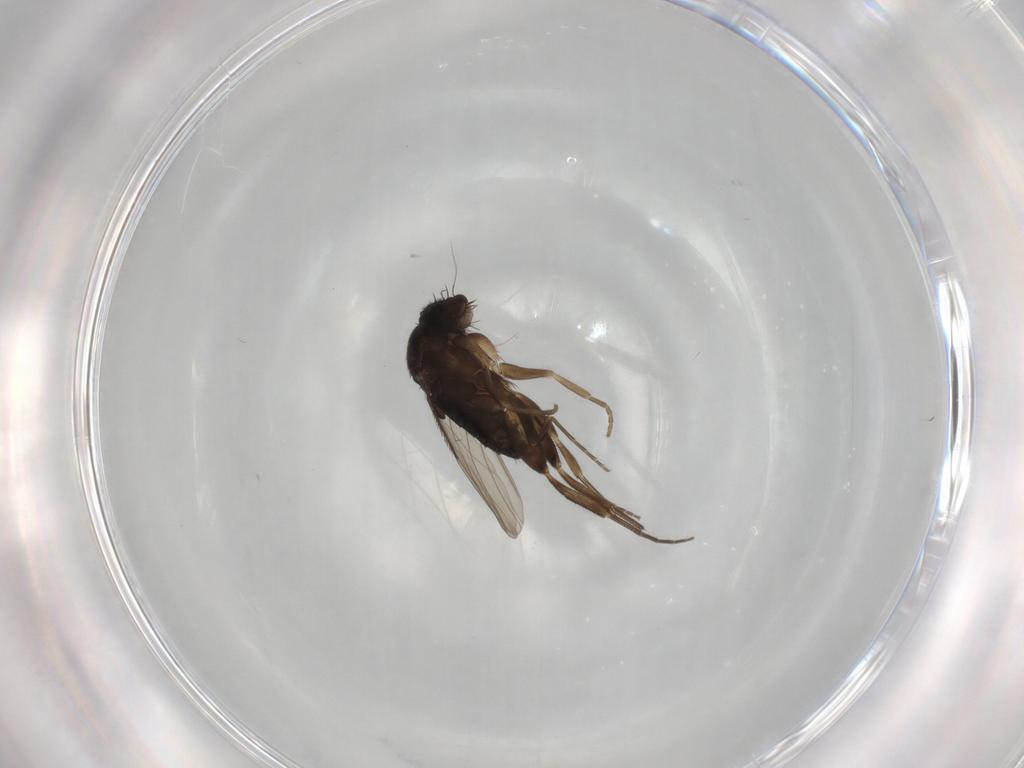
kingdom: Animalia
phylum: Arthropoda
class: Insecta
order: Diptera
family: Phoridae
